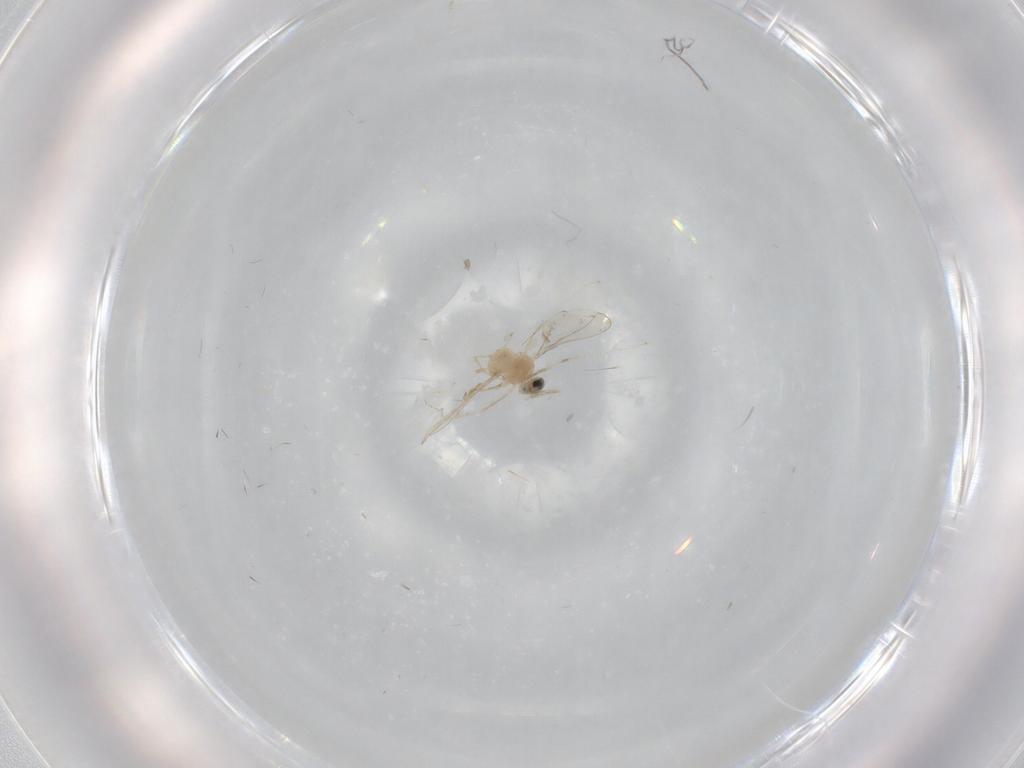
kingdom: Animalia
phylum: Arthropoda
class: Insecta
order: Diptera
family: Cecidomyiidae
